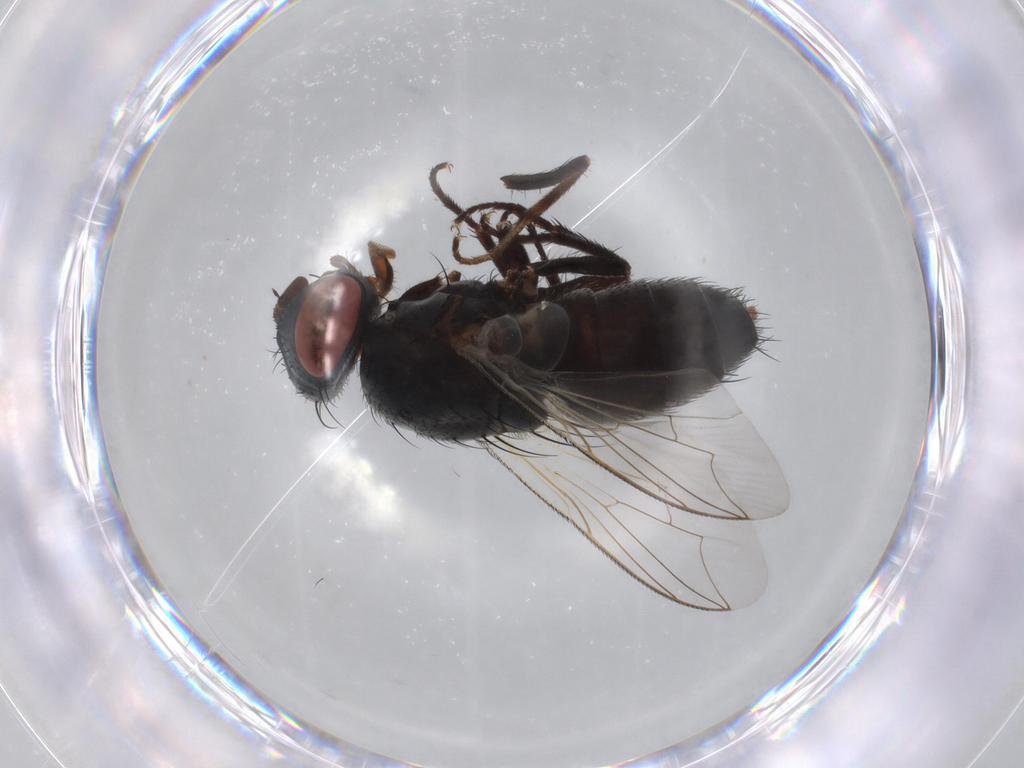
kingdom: Animalia
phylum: Arthropoda
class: Insecta
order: Diptera
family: Sarcophagidae
